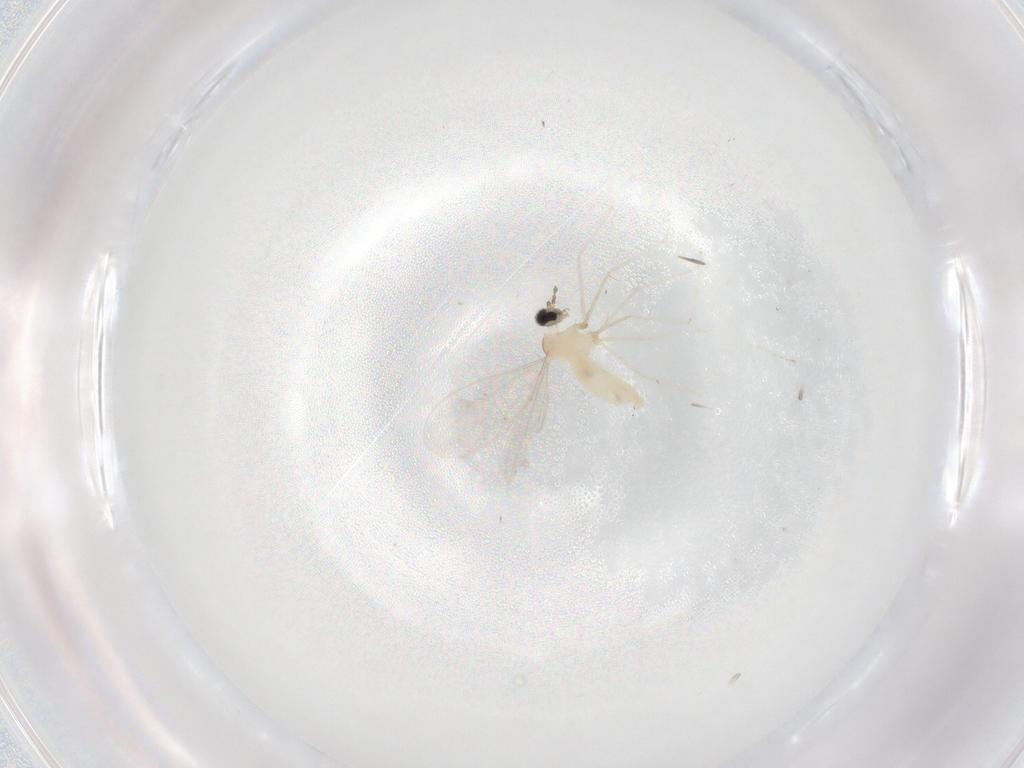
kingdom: Animalia
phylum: Arthropoda
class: Insecta
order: Diptera
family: Cecidomyiidae
